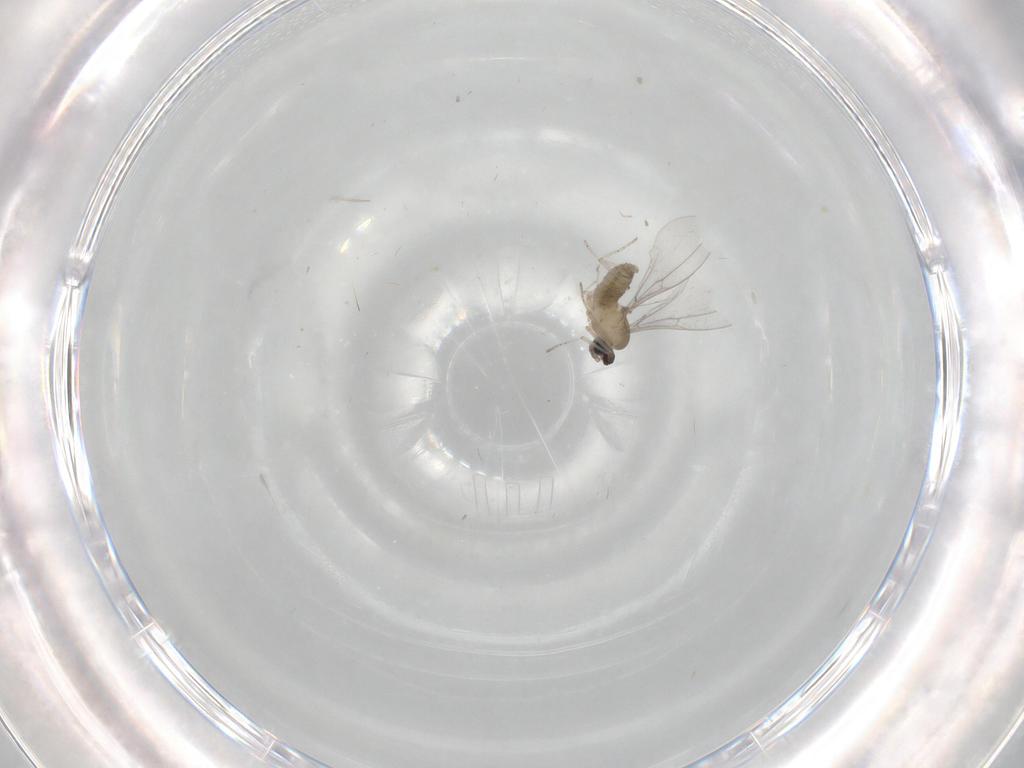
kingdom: Animalia
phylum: Arthropoda
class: Insecta
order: Diptera
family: Cecidomyiidae
